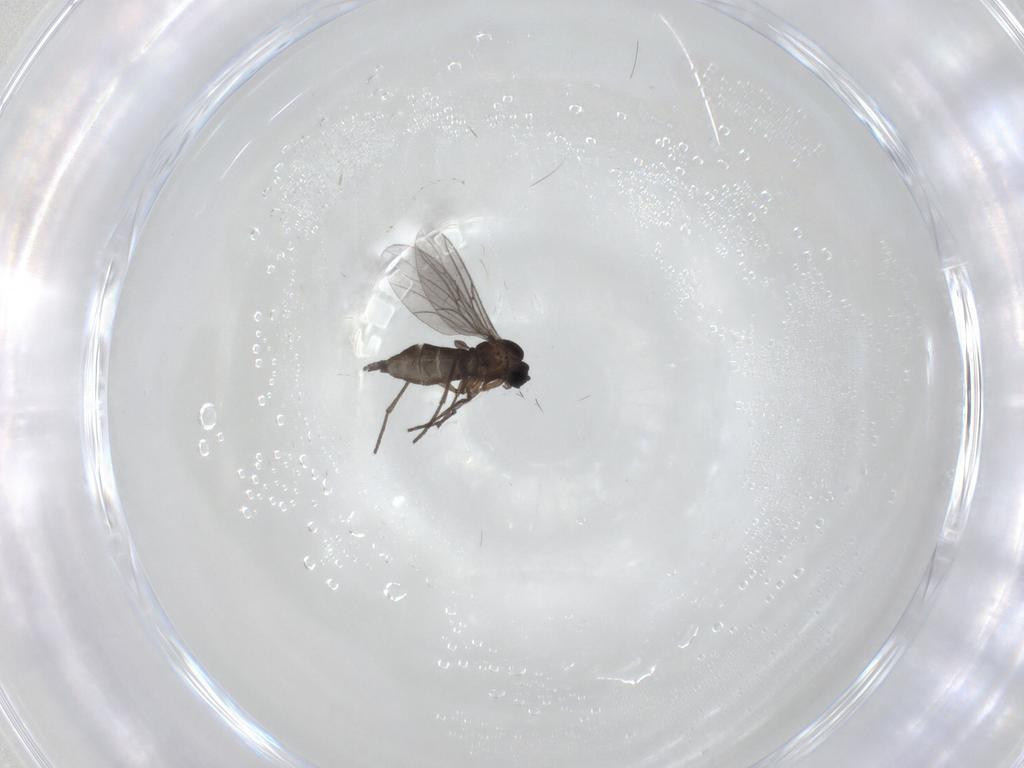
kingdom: Animalia
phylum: Arthropoda
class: Insecta
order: Diptera
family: Sciaridae
